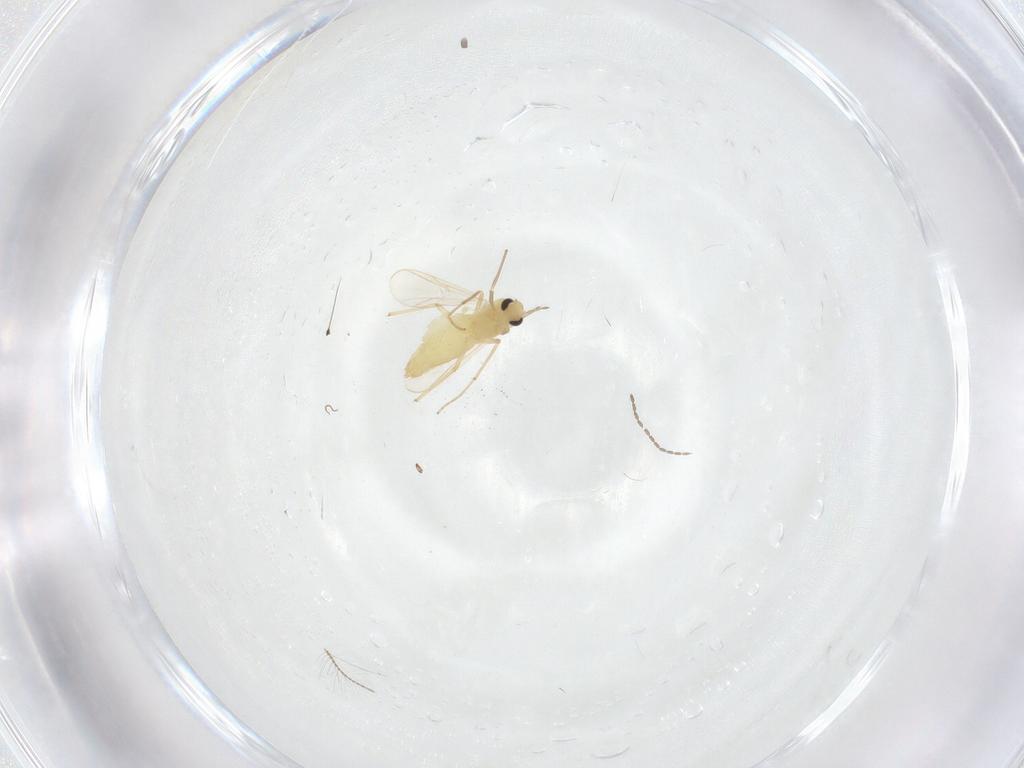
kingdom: Animalia
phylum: Arthropoda
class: Insecta
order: Diptera
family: Chironomidae
